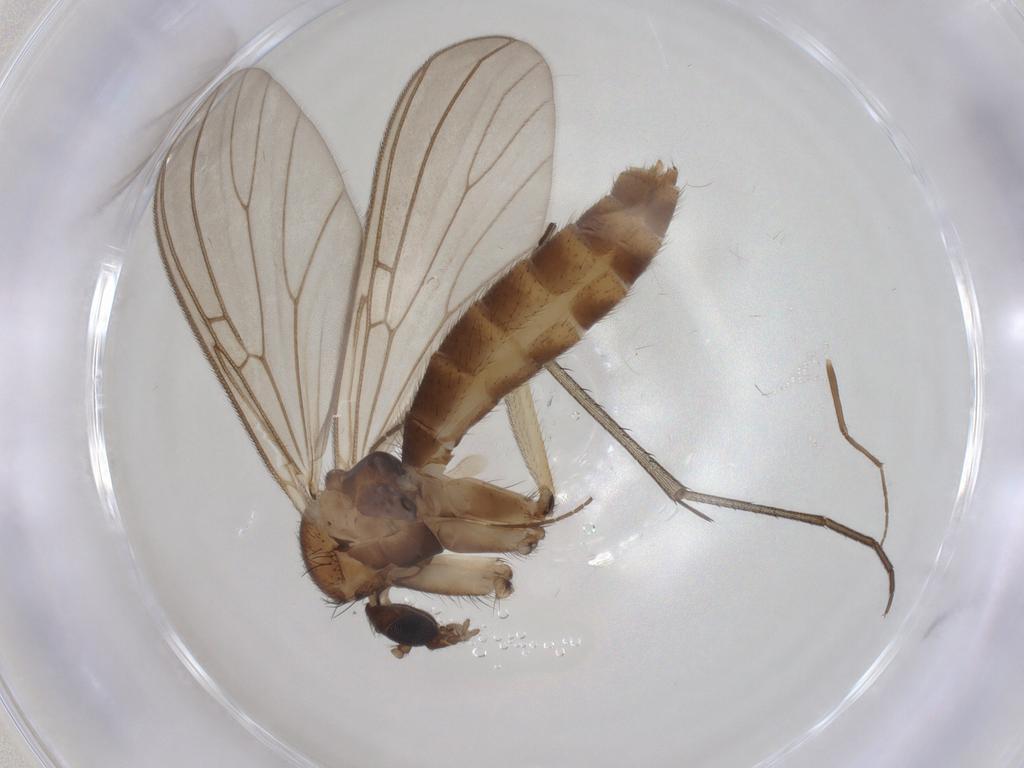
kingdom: Animalia
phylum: Arthropoda
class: Insecta
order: Diptera
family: Mycetophilidae
